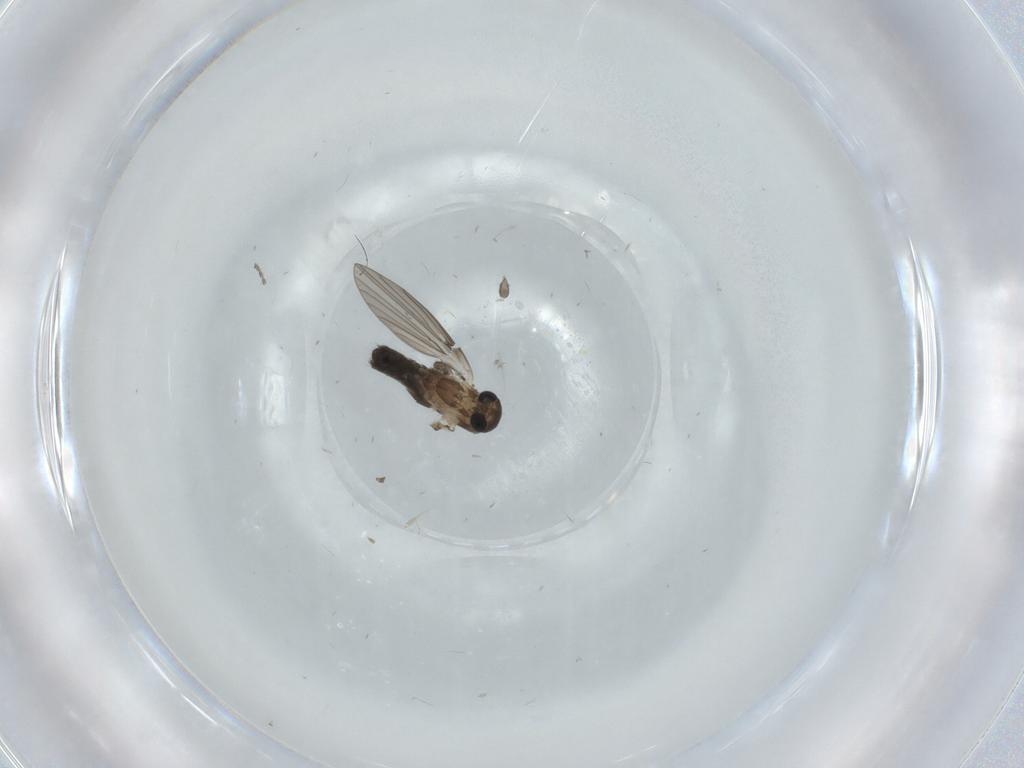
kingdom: Animalia
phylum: Arthropoda
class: Insecta
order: Diptera
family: Psychodidae
